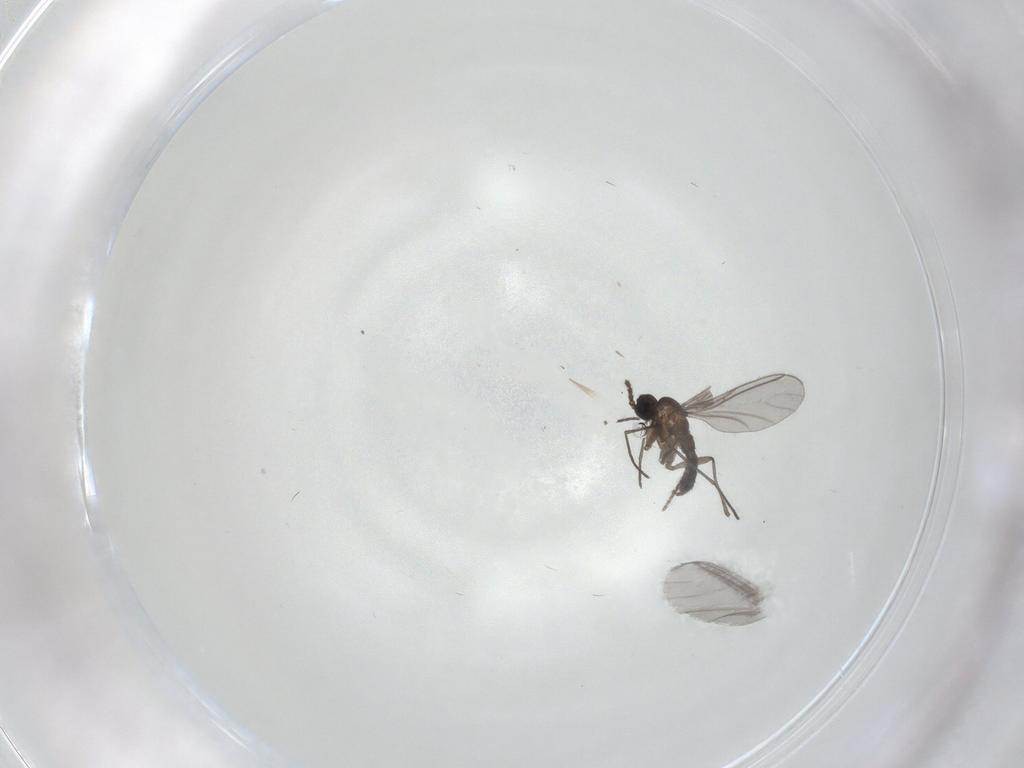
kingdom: Animalia
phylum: Arthropoda
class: Insecta
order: Diptera
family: Ceratopogonidae
